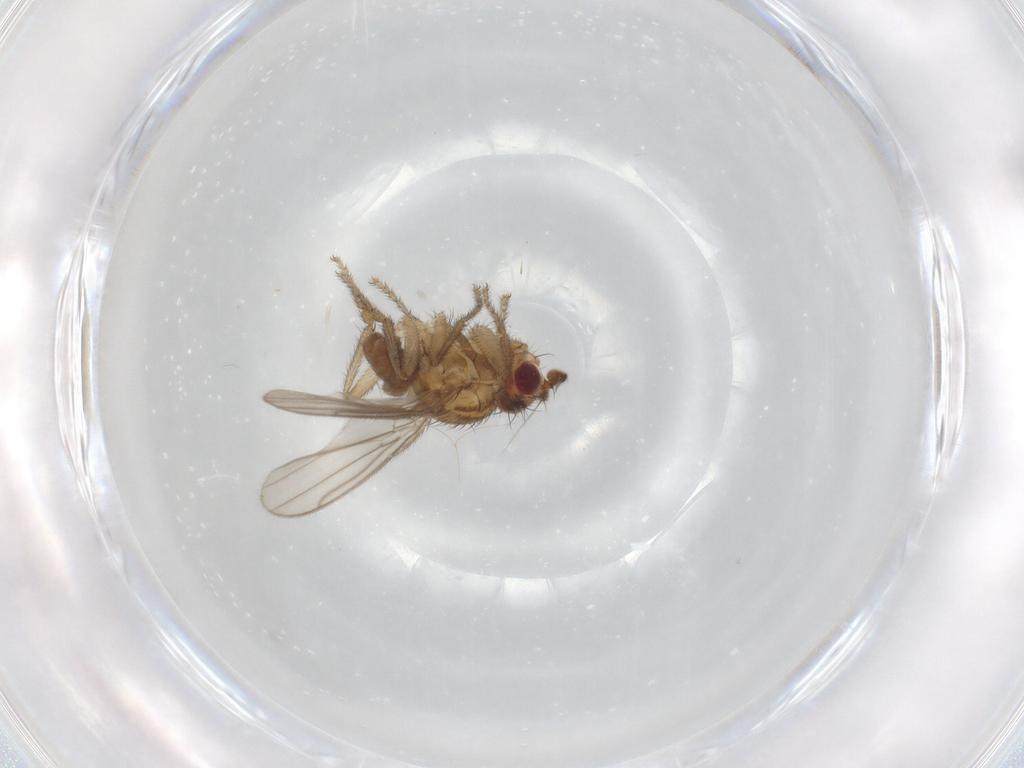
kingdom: Animalia
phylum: Arthropoda
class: Insecta
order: Diptera
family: Sphaeroceridae
